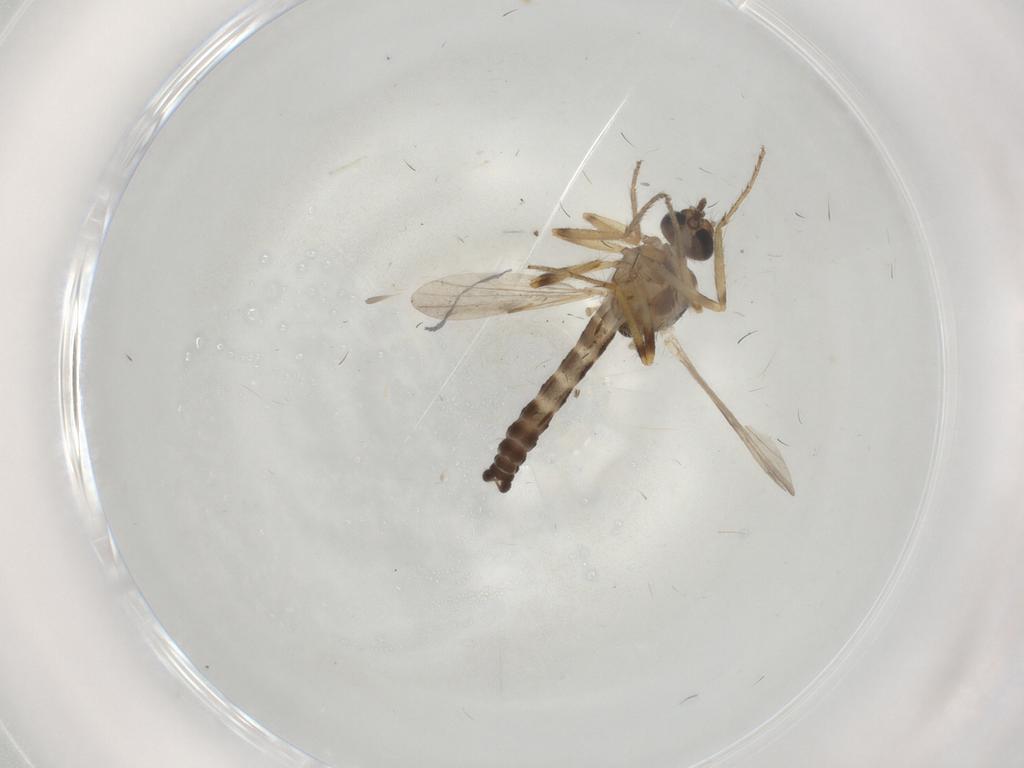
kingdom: Animalia
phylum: Arthropoda
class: Insecta
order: Diptera
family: Ceratopogonidae
